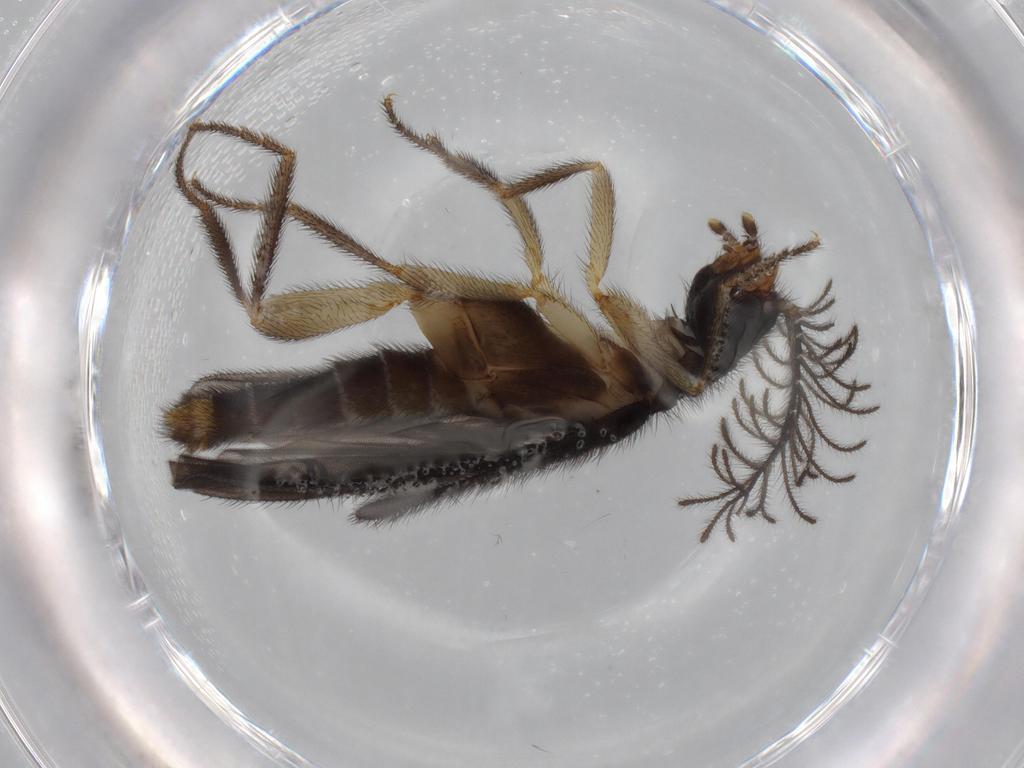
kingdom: Animalia
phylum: Arthropoda
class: Insecta
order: Coleoptera
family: Phengodidae
